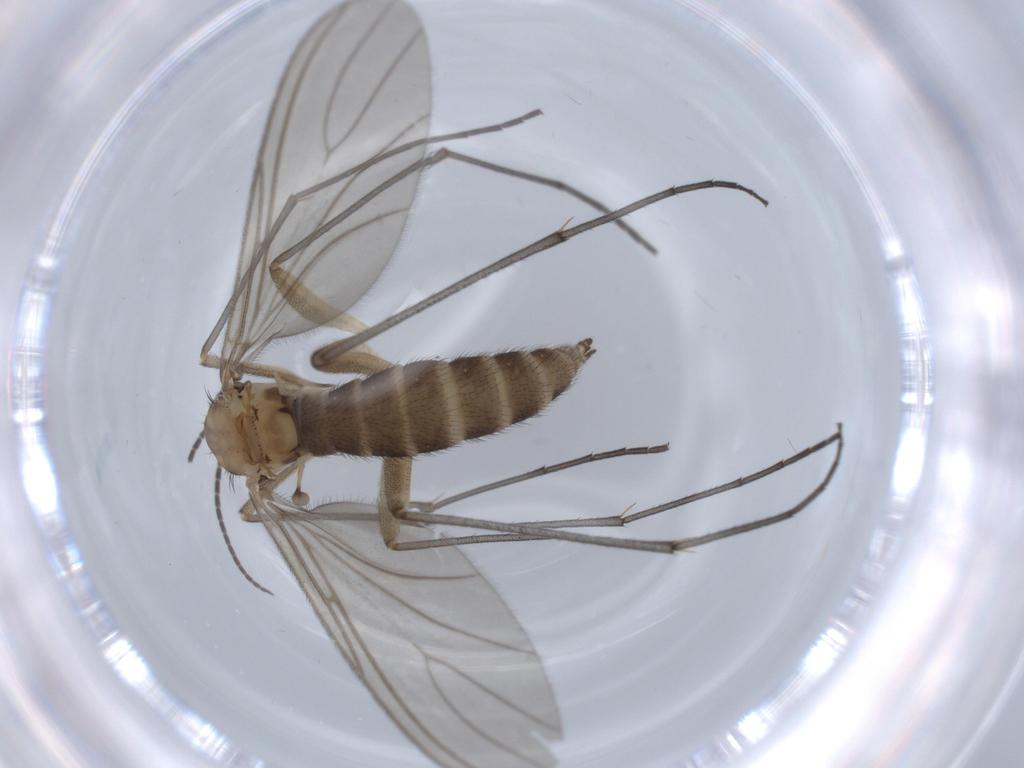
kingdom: Animalia
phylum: Arthropoda
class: Insecta
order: Diptera
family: Sciaridae
